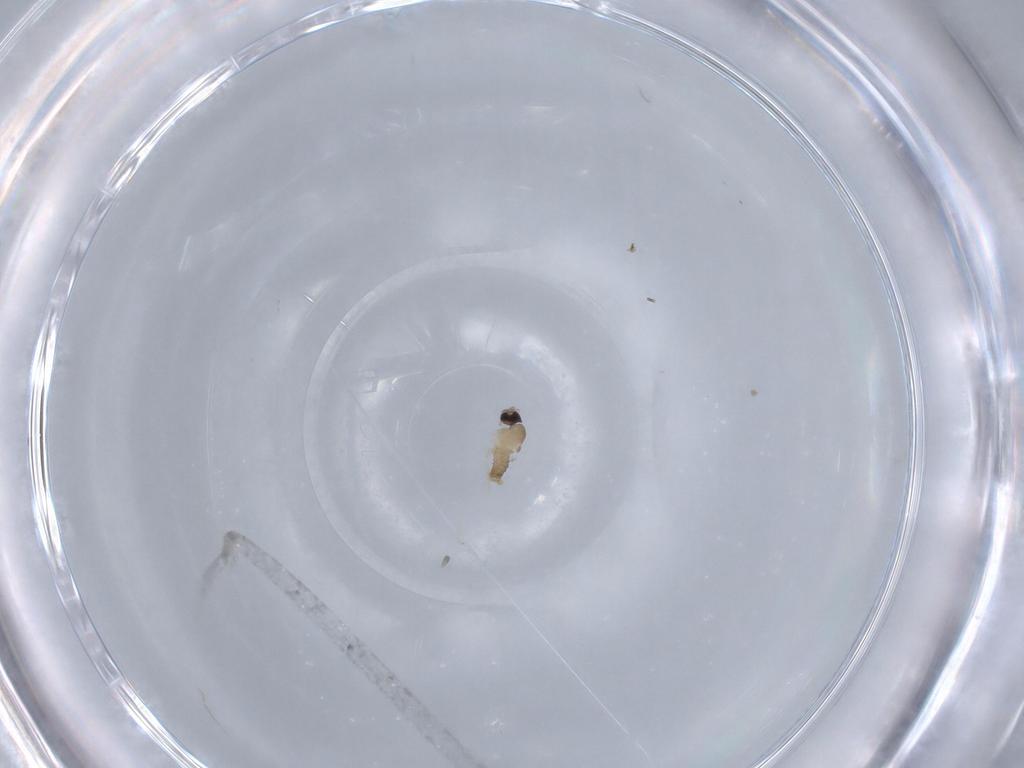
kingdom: Animalia
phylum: Arthropoda
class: Insecta
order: Diptera
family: Cecidomyiidae
